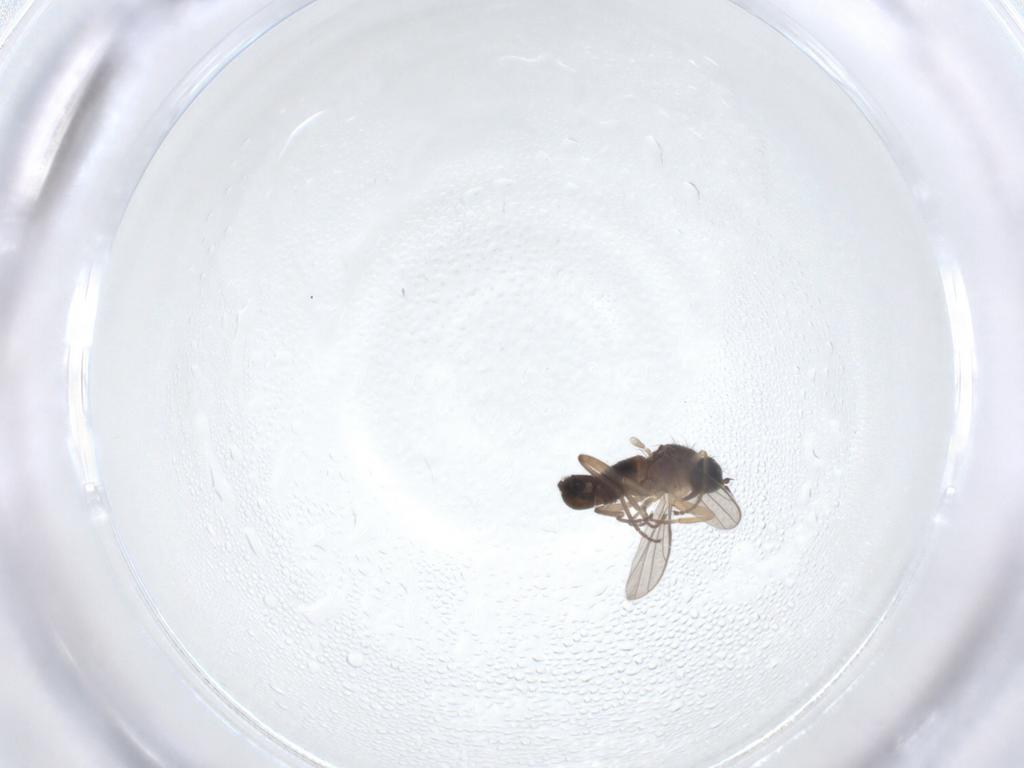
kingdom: Animalia
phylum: Arthropoda
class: Insecta
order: Diptera
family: Hybotidae
